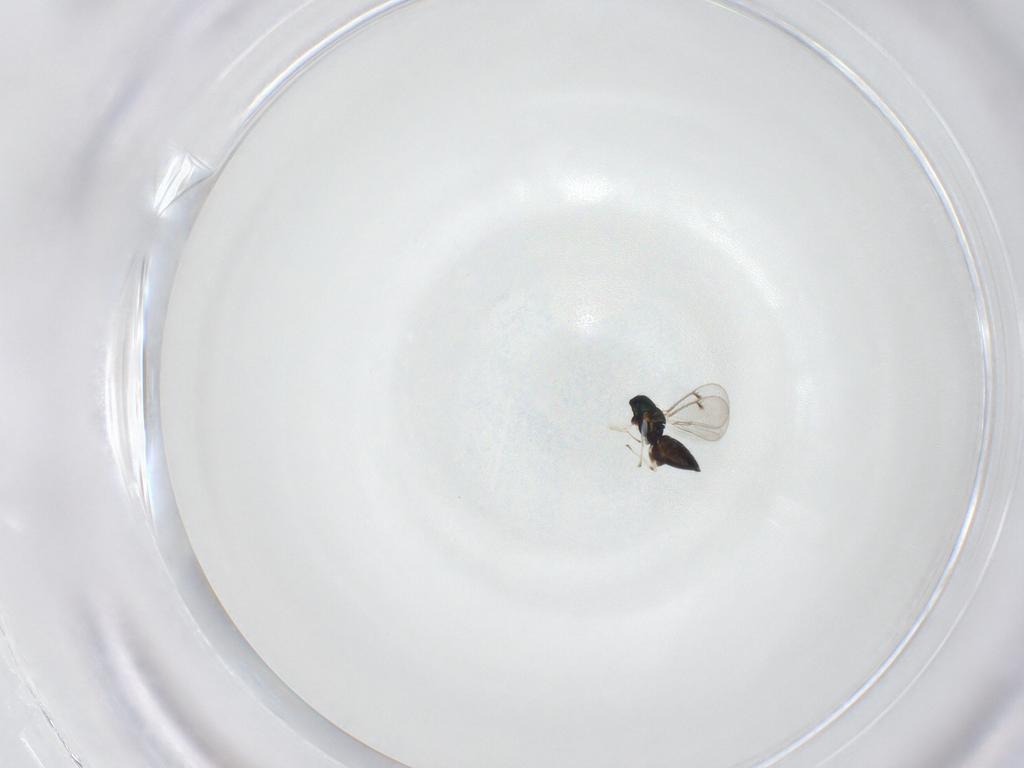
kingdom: Animalia
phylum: Arthropoda
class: Insecta
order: Hymenoptera
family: Eulophidae
